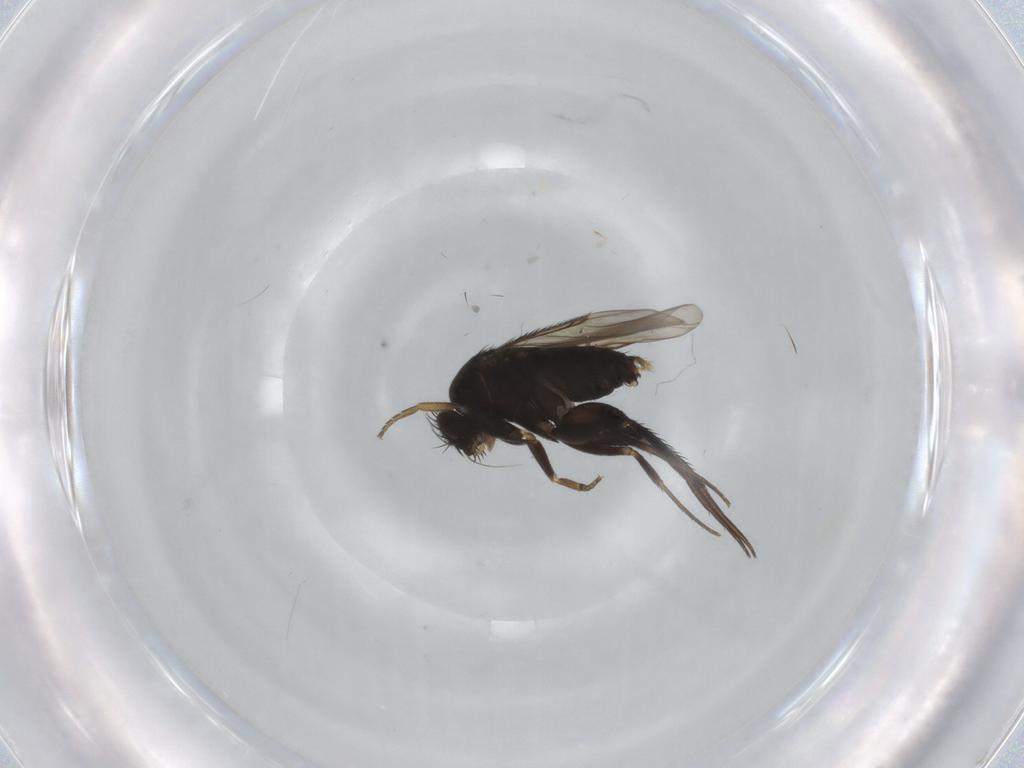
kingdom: Animalia
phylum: Arthropoda
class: Insecta
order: Diptera
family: Phoridae
